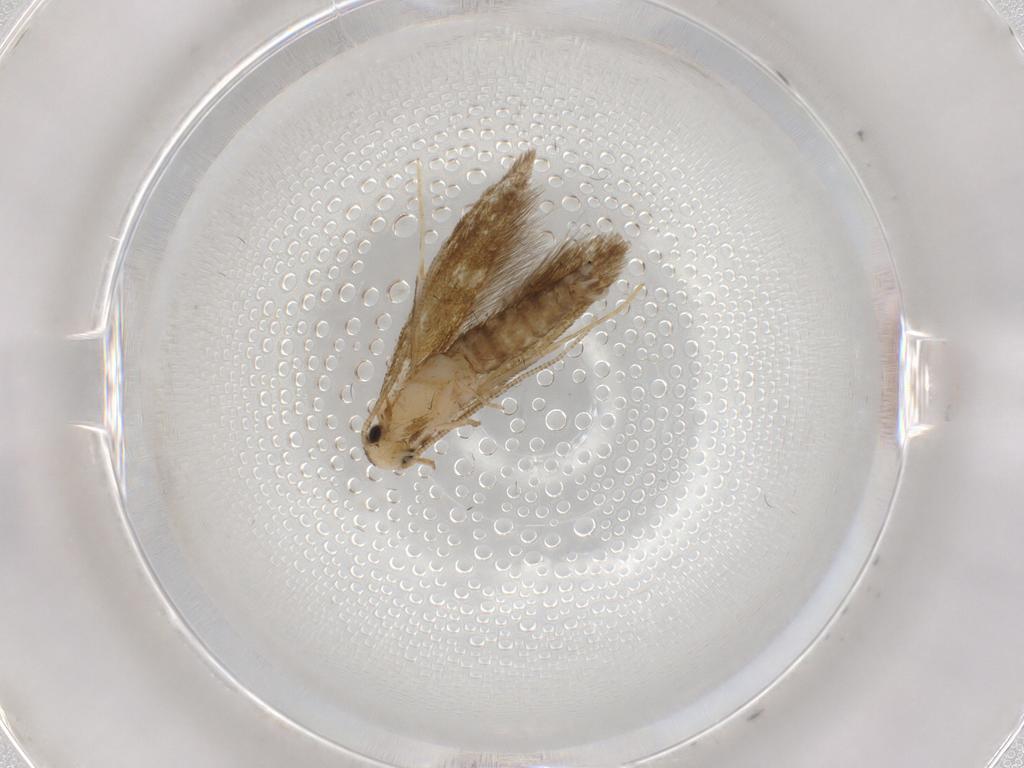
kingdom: Animalia
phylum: Arthropoda
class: Insecta
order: Lepidoptera
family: Tineidae
